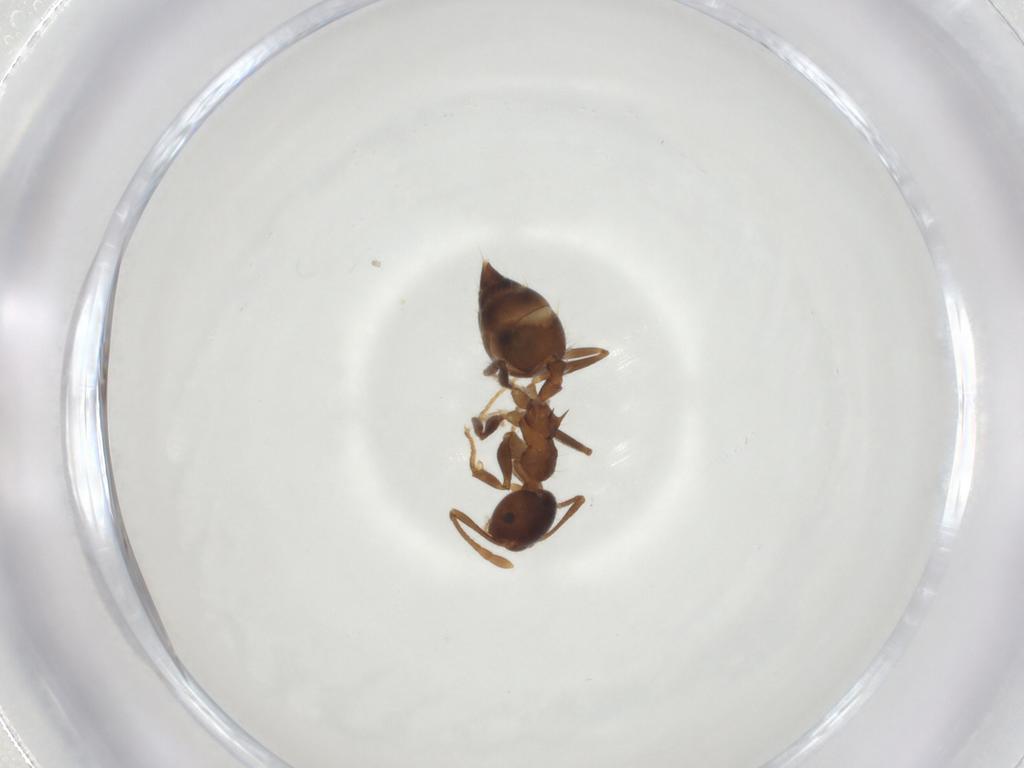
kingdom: Animalia
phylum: Arthropoda
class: Insecta
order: Hymenoptera
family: Formicidae
